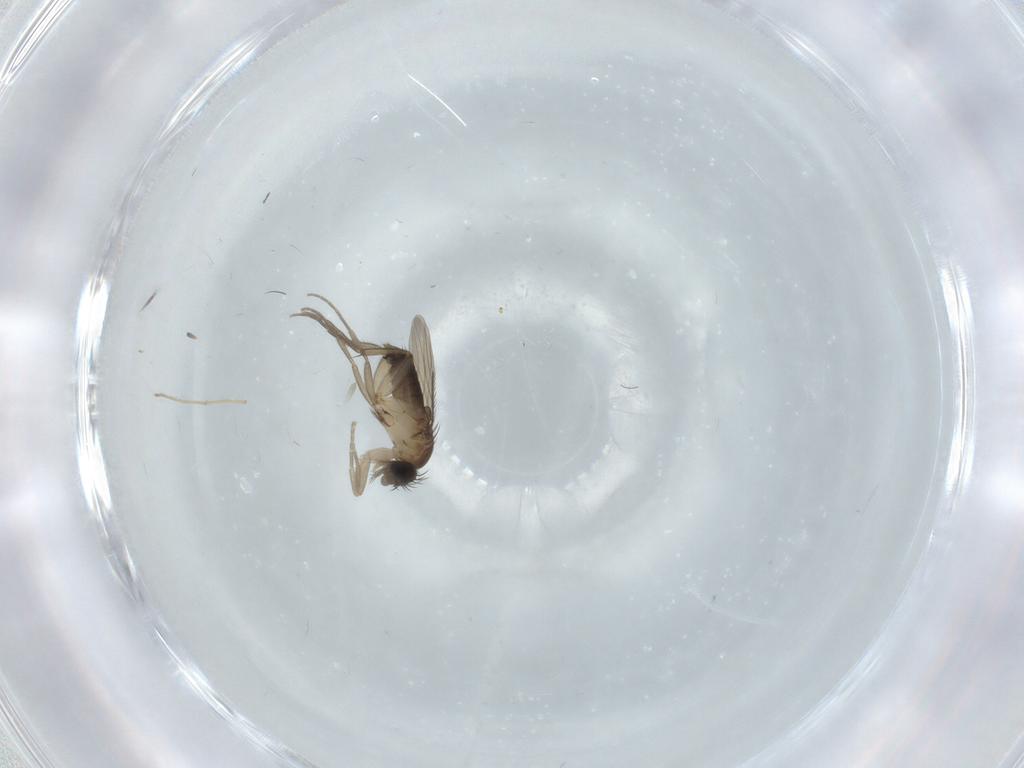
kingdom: Animalia
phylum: Arthropoda
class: Insecta
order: Diptera
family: Phoridae
